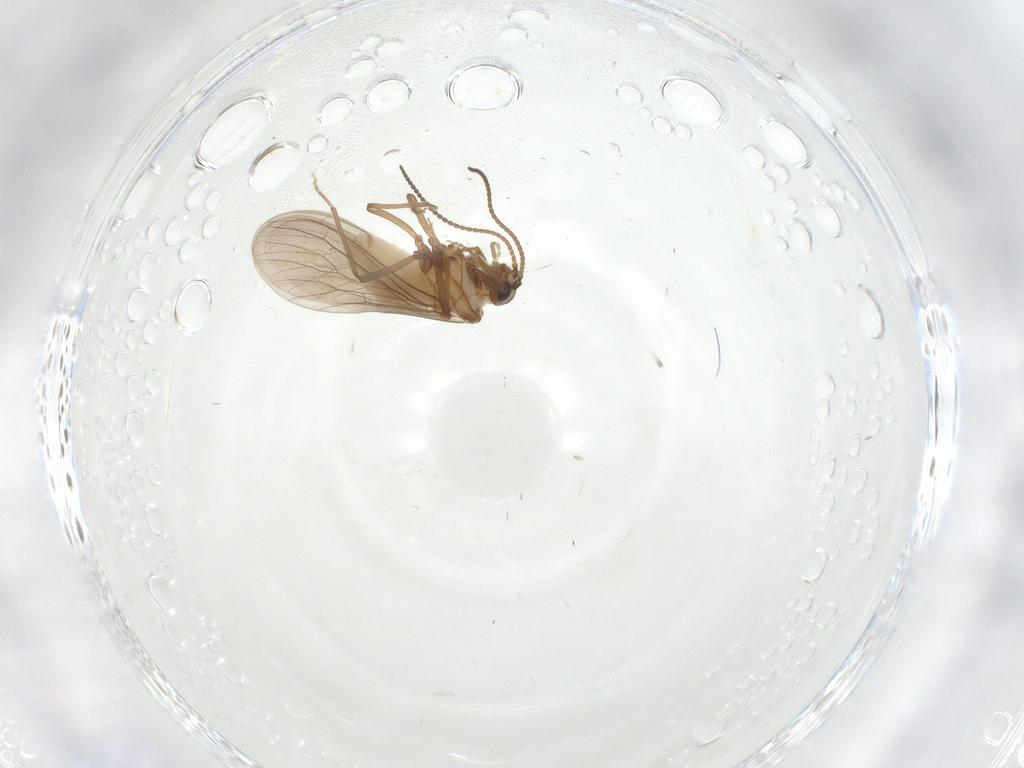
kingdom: Animalia
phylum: Arthropoda
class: Insecta
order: Neuroptera
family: Coniopterygidae
